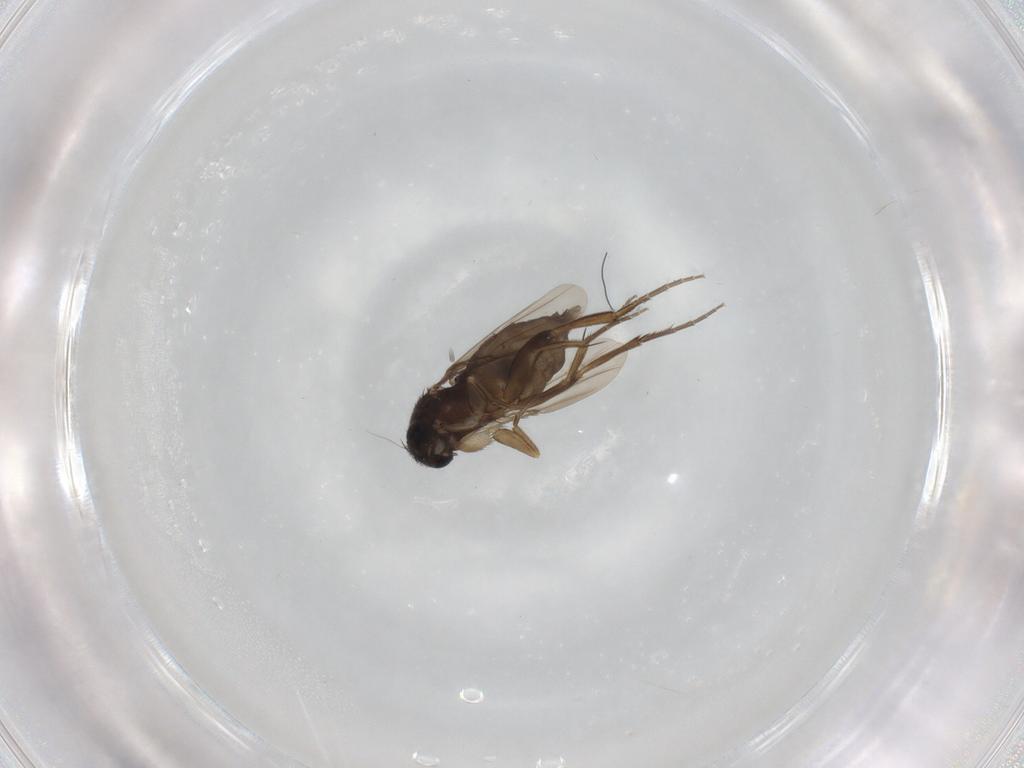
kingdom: Animalia
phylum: Arthropoda
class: Insecta
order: Diptera
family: Phoridae
